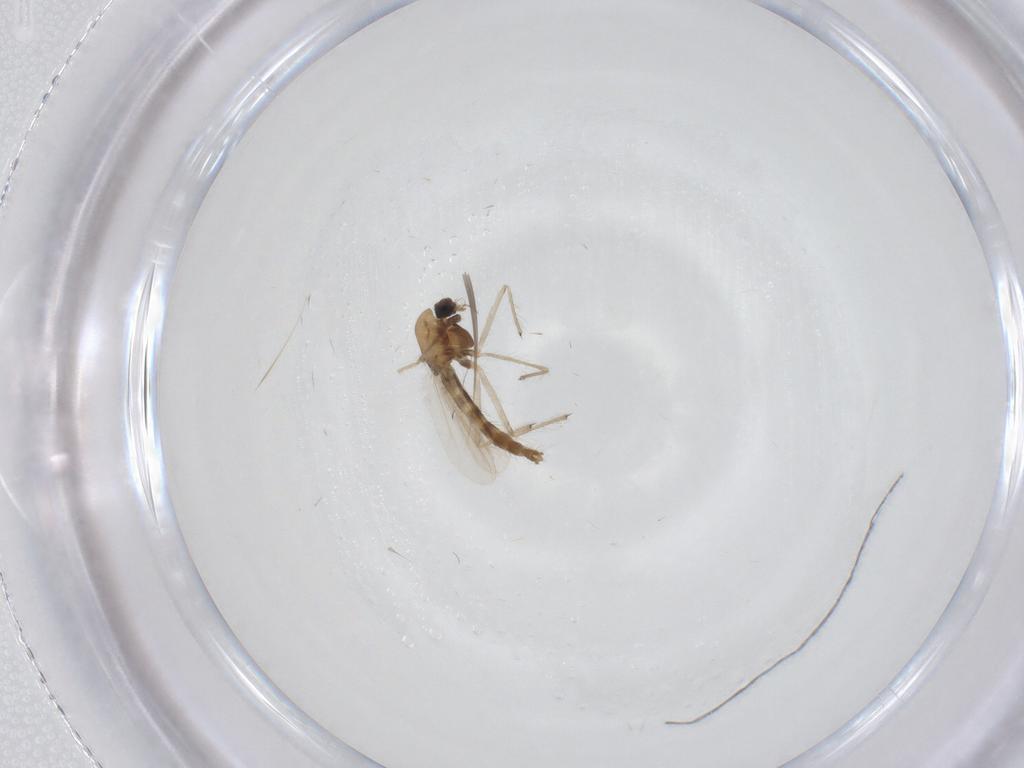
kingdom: Animalia
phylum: Arthropoda
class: Insecta
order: Diptera
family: Chironomidae
